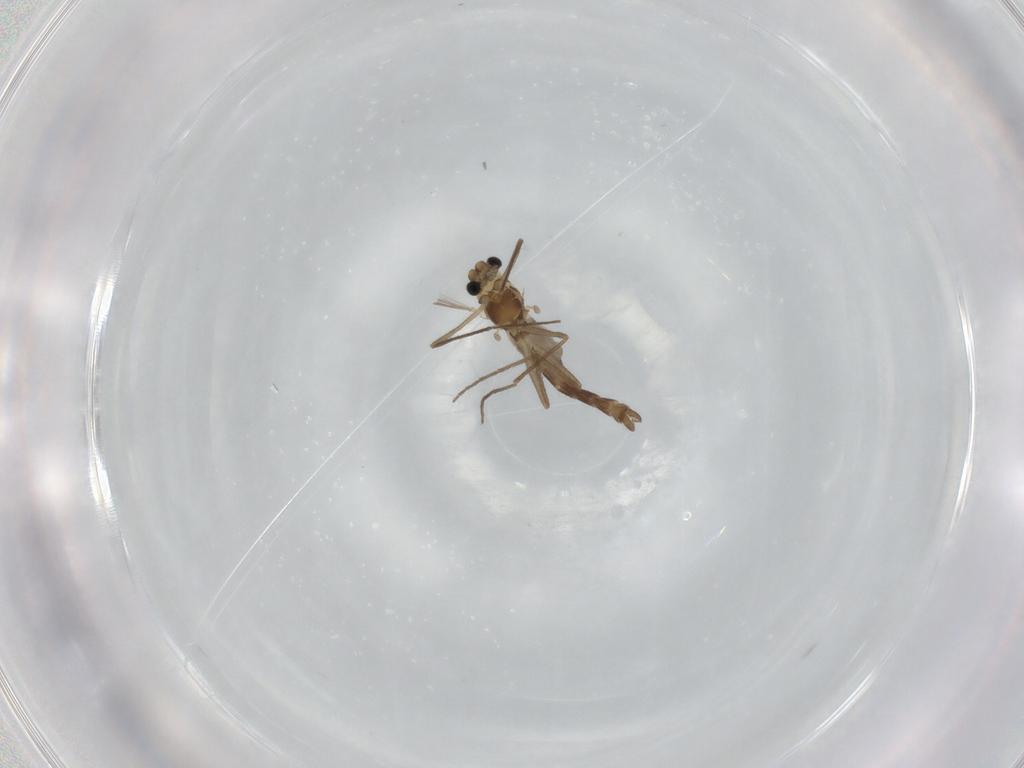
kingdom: Animalia
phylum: Arthropoda
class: Insecta
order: Diptera
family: Chironomidae
